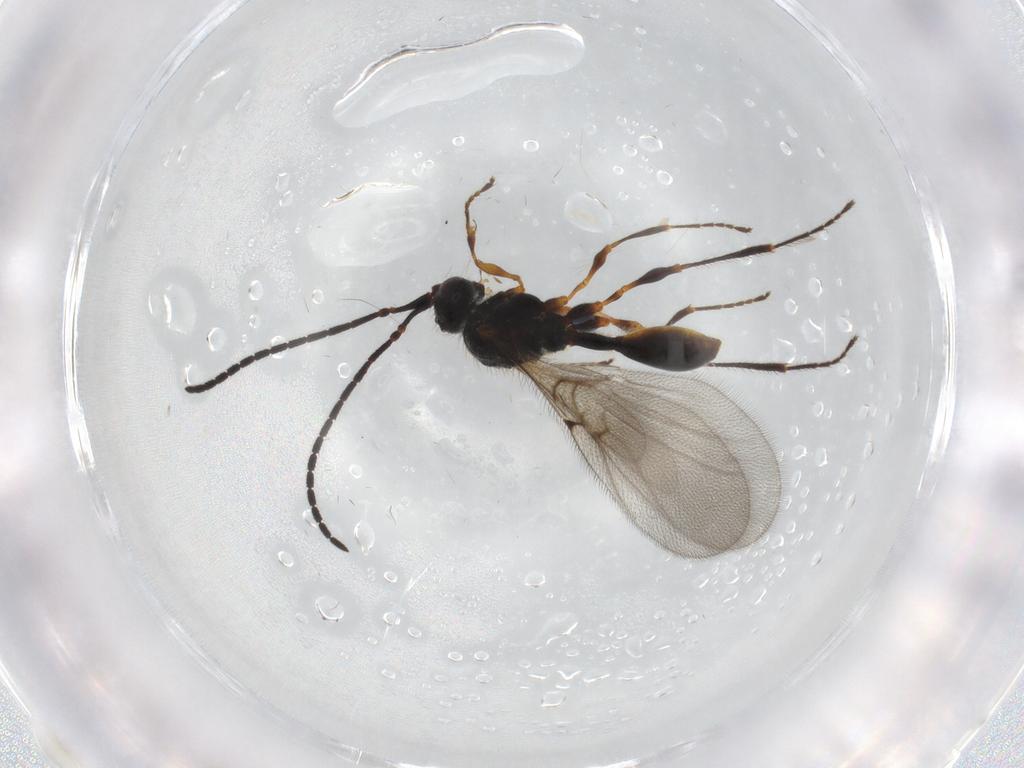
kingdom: Animalia
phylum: Arthropoda
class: Insecta
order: Hymenoptera
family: Diapriidae
